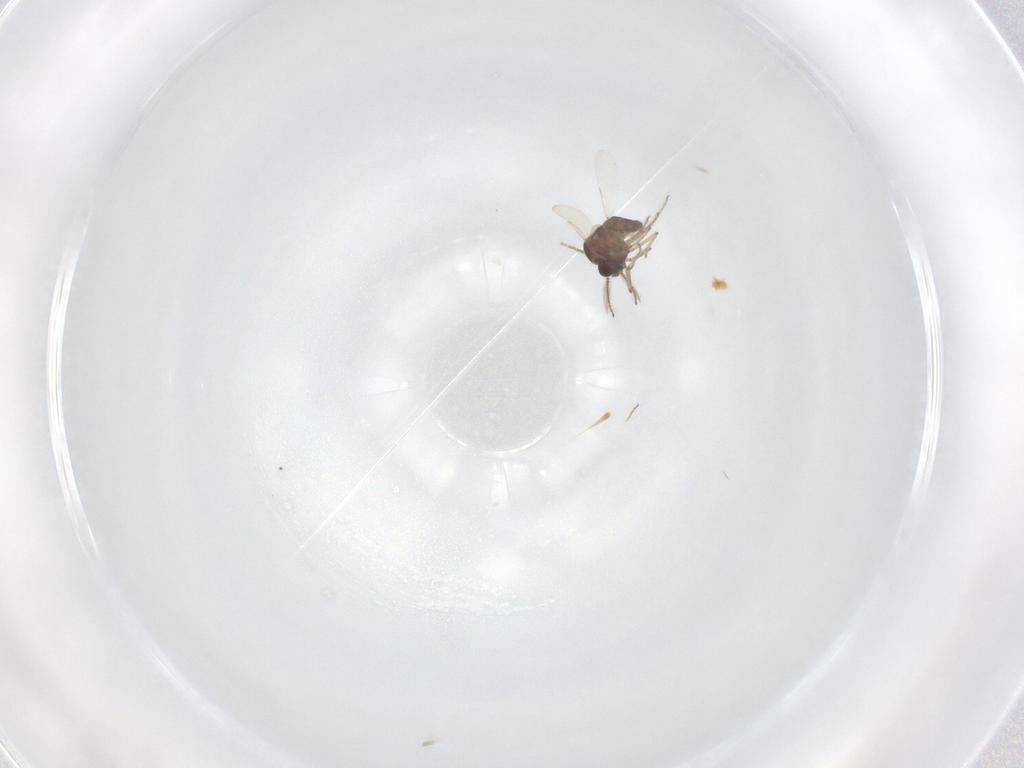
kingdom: Animalia
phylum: Arthropoda
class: Insecta
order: Diptera
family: Ceratopogonidae
